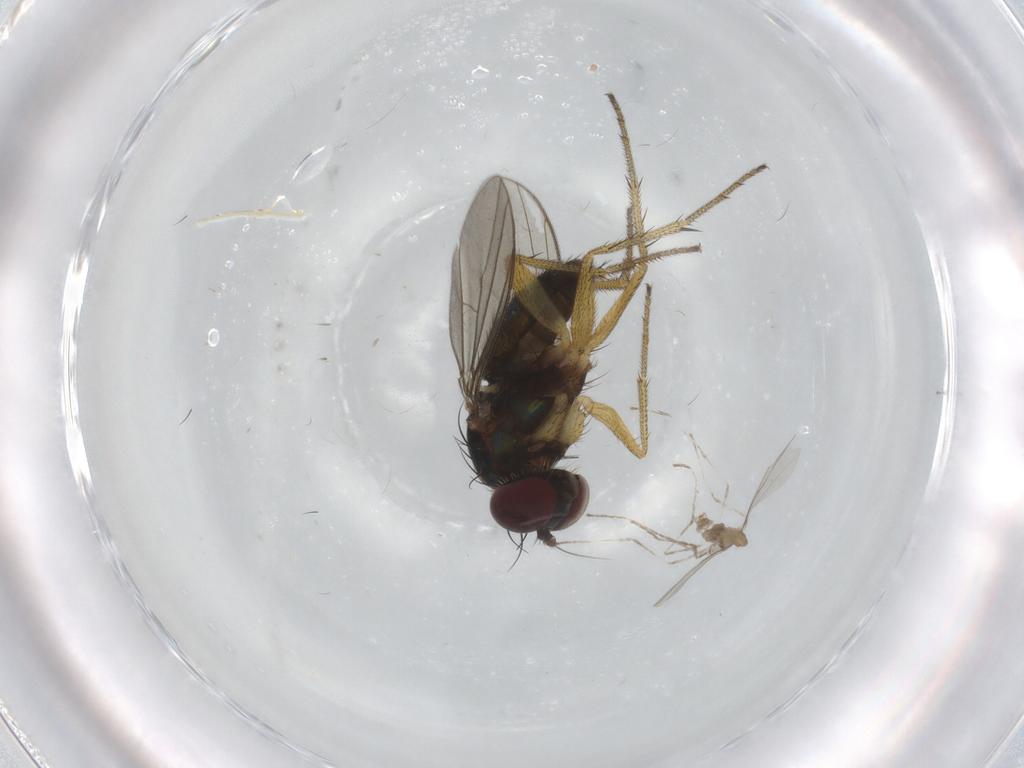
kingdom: Animalia
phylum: Arthropoda
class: Insecta
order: Diptera
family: Cecidomyiidae
